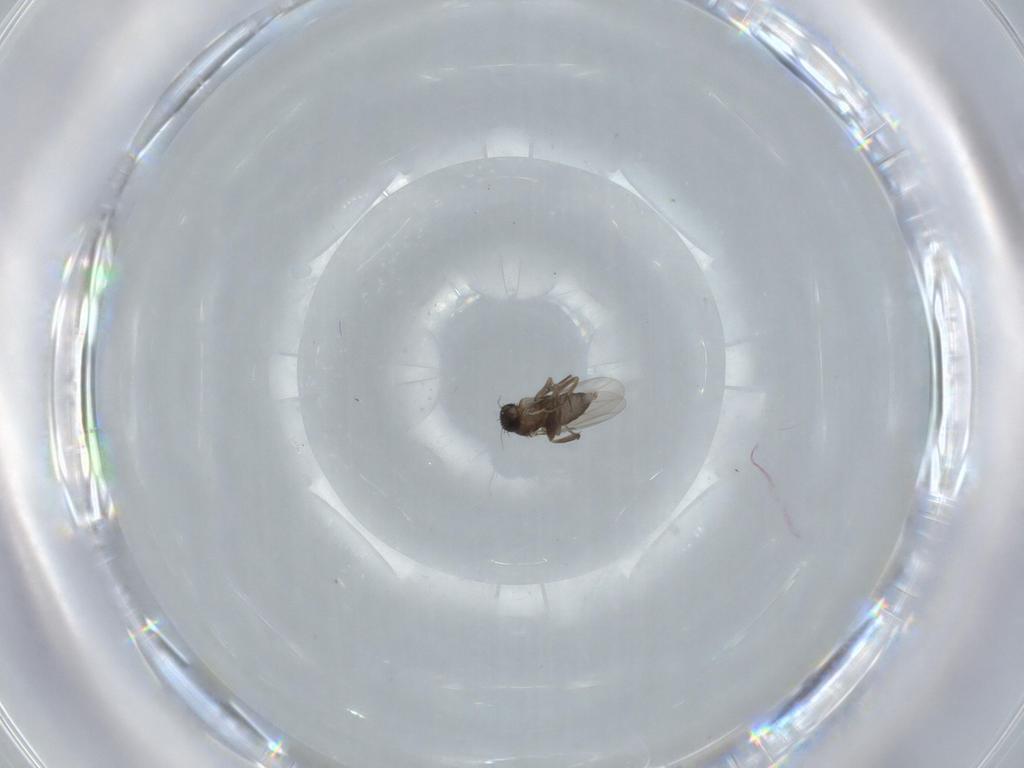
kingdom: Animalia
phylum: Arthropoda
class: Insecta
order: Diptera
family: Phoridae
